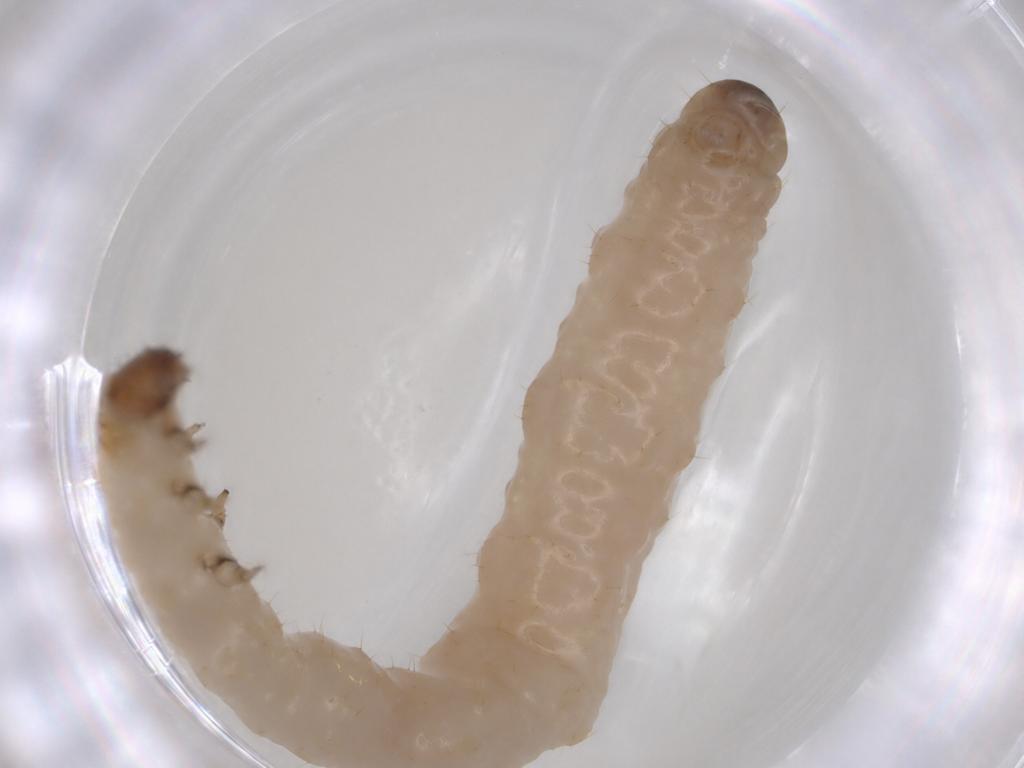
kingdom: Animalia
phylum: Arthropoda
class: Insecta
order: Coleoptera
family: Chrysomelidae
